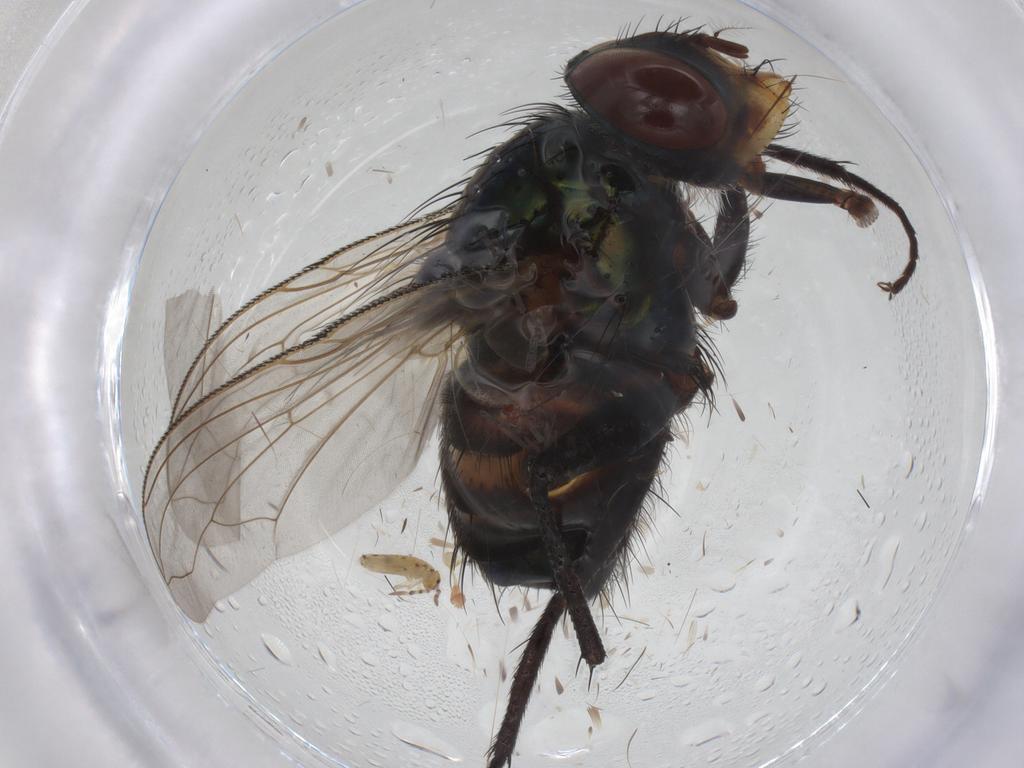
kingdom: Animalia
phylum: Arthropoda
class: Insecta
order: Diptera
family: Calliphoridae
